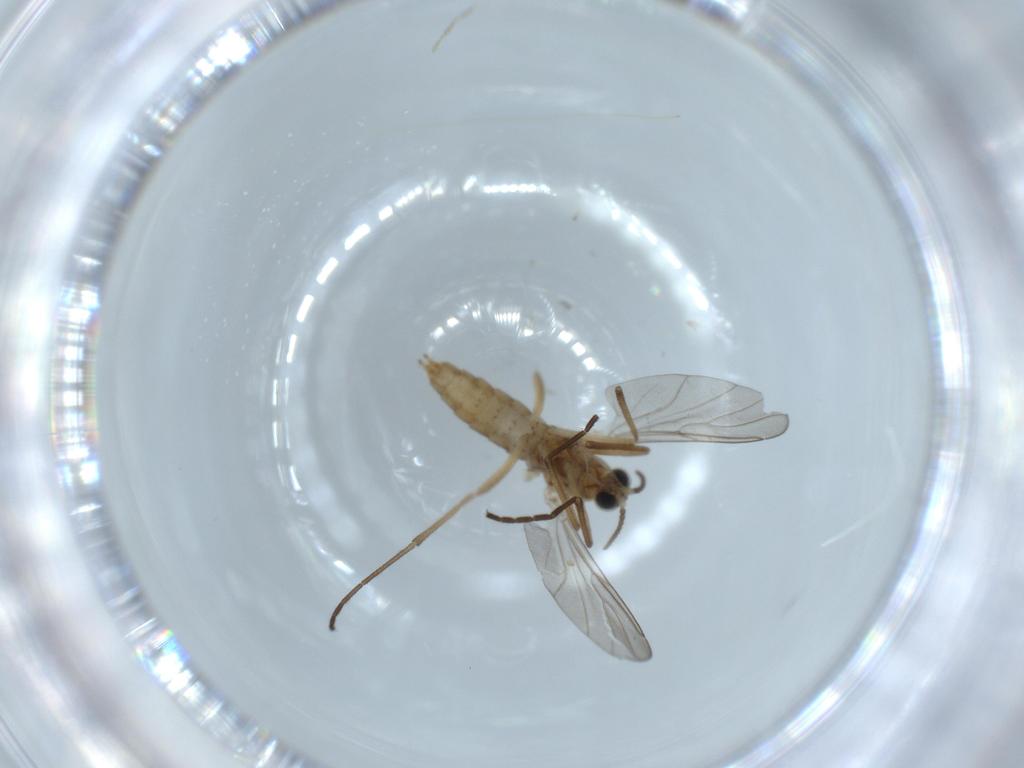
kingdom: Animalia
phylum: Arthropoda
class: Insecta
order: Diptera
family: Cecidomyiidae
